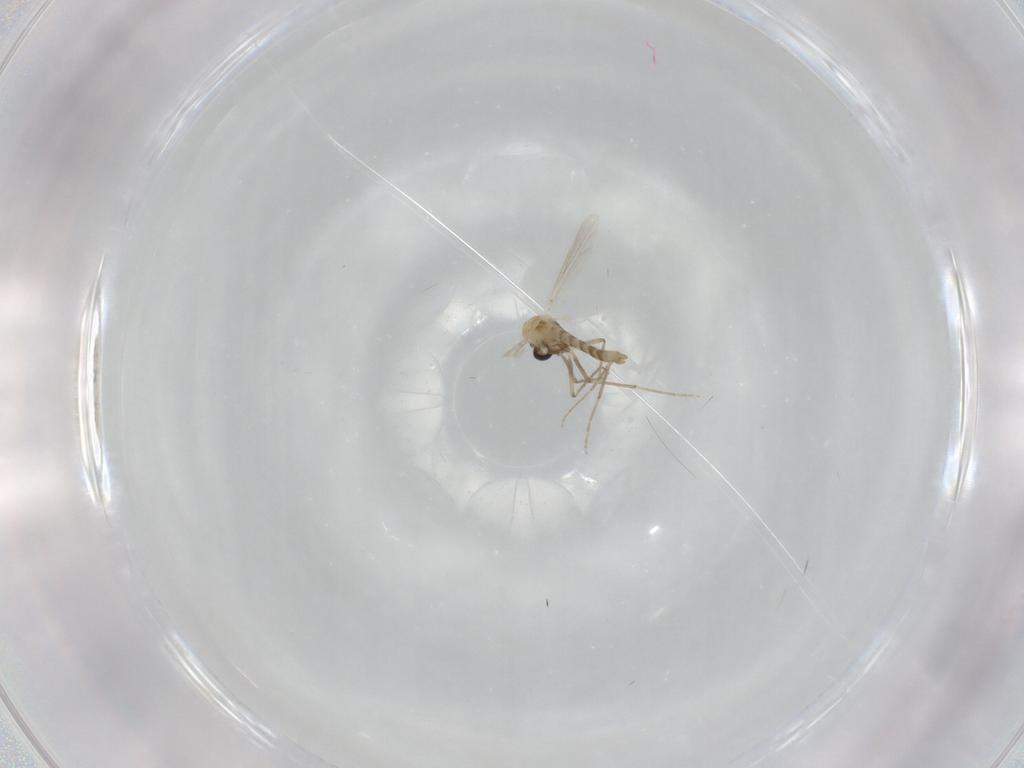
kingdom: Animalia
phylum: Arthropoda
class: Insecta
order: Diptera
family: Chironomidae
